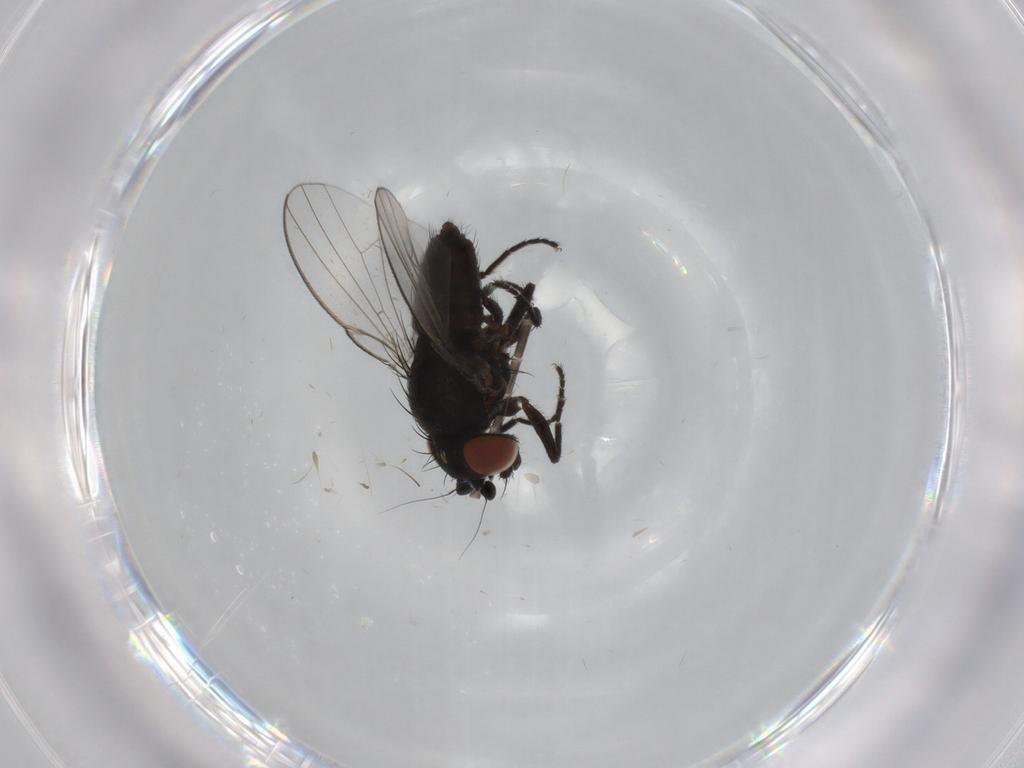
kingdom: Animalia
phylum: Arthropoda
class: Insecta
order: Diptera
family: Milichiidae
